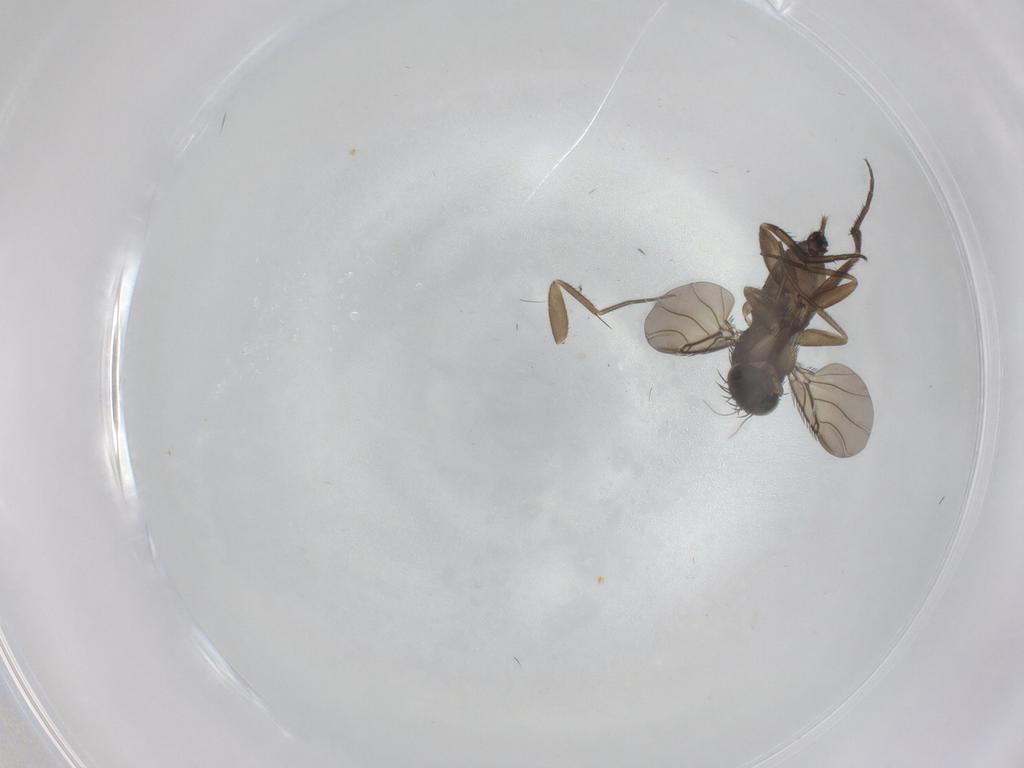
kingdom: Animalia
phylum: Arthropoda
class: Insecta
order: Diptera
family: Phoridae
